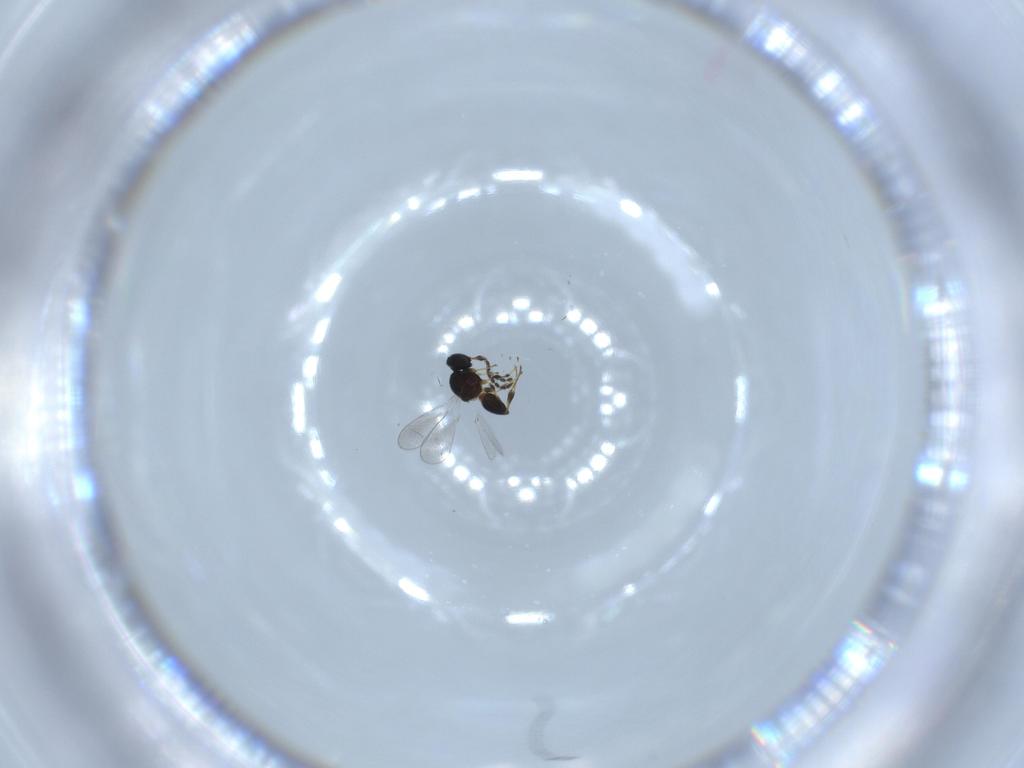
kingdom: Animalia
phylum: Arthropoda
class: Insecta
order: Hymenoptera
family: Platygastridae
